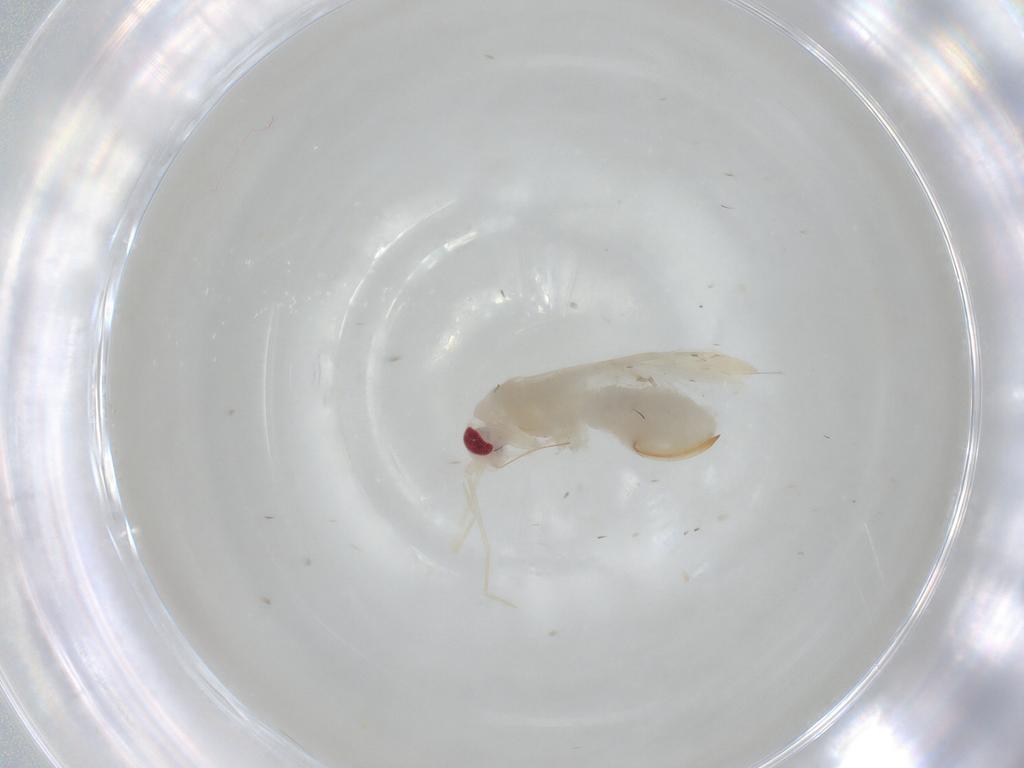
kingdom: Animalia
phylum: Arthropoda
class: Insecta
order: Hemiptera
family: Miridae
